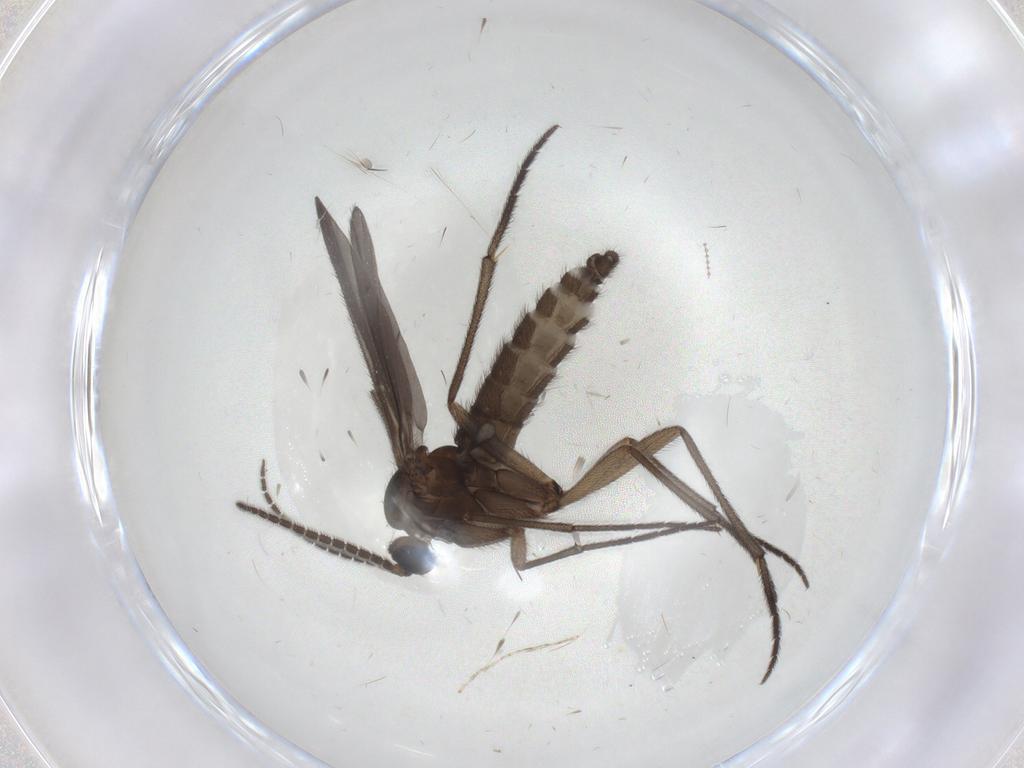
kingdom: Animalia
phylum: Arthropoda
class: Insecta
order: Diptera
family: Sciaridae
